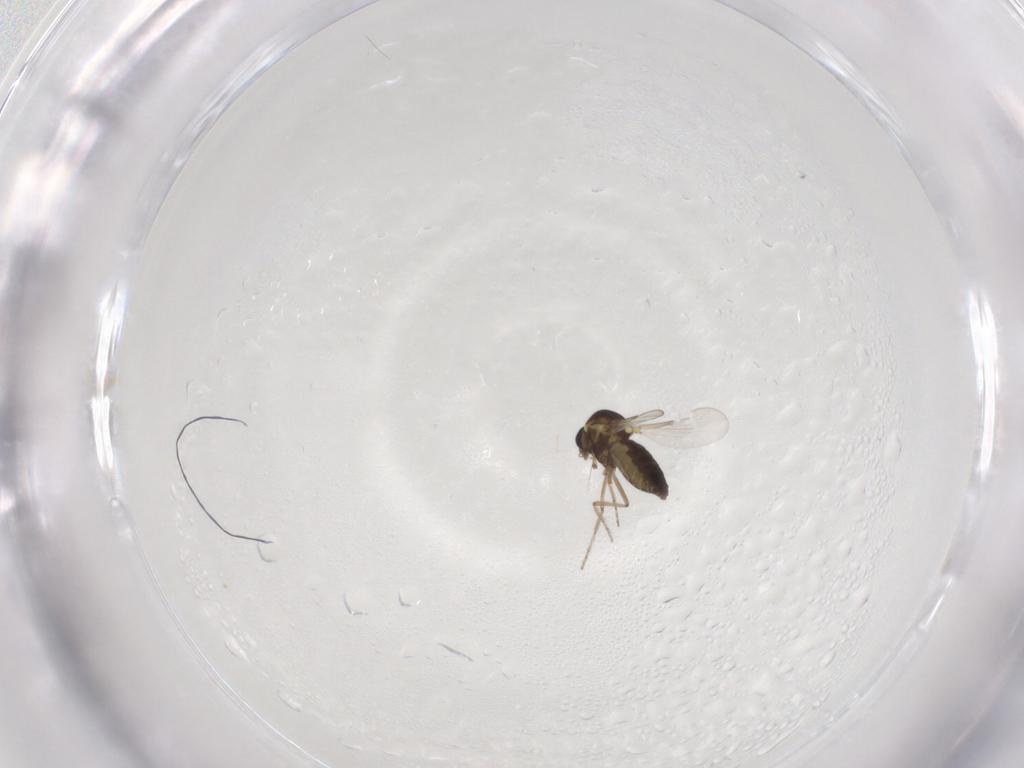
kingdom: Animalia
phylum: Arthropoda
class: Insecta
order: Diptera
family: Ceratopogonidae
